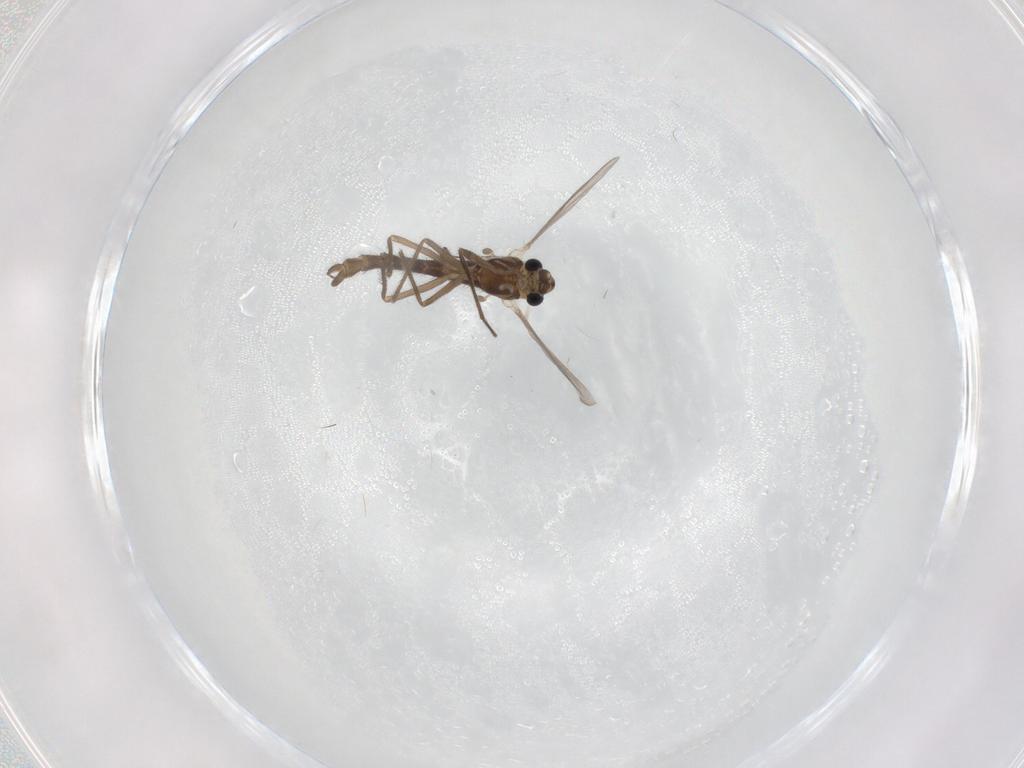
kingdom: Animalia
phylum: Arthropoda
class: Insecta
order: Diptera
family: Chironomidae
